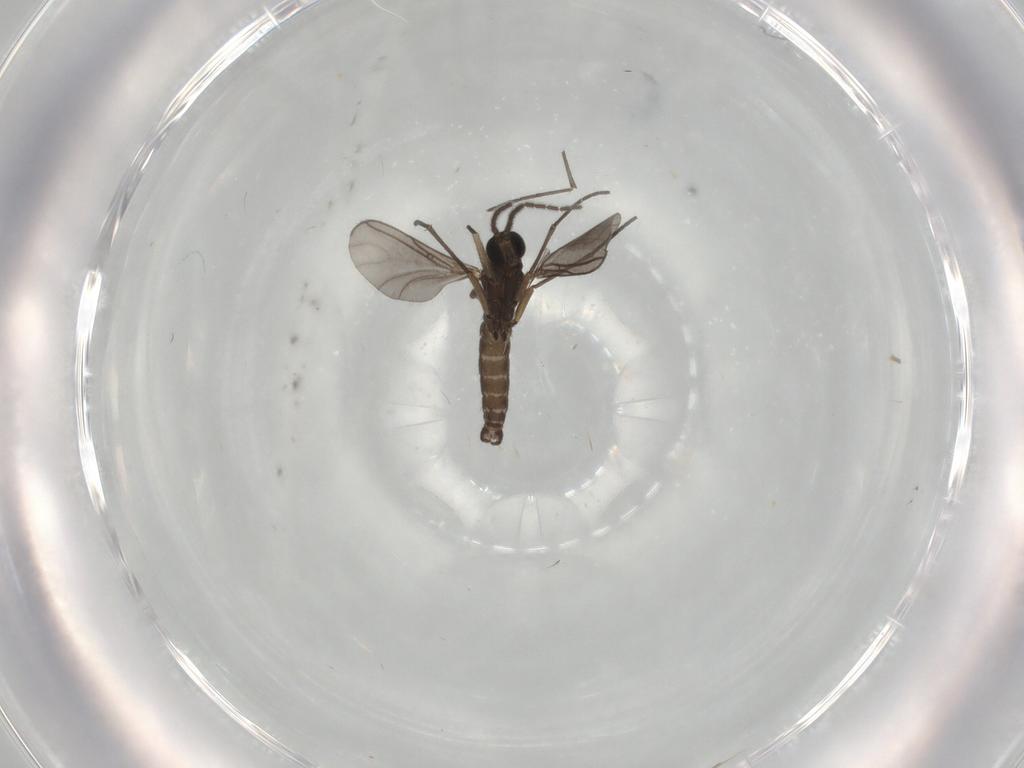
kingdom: Animalia
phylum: Arthropoda
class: Insecta
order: Diptera
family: Sciaridae
